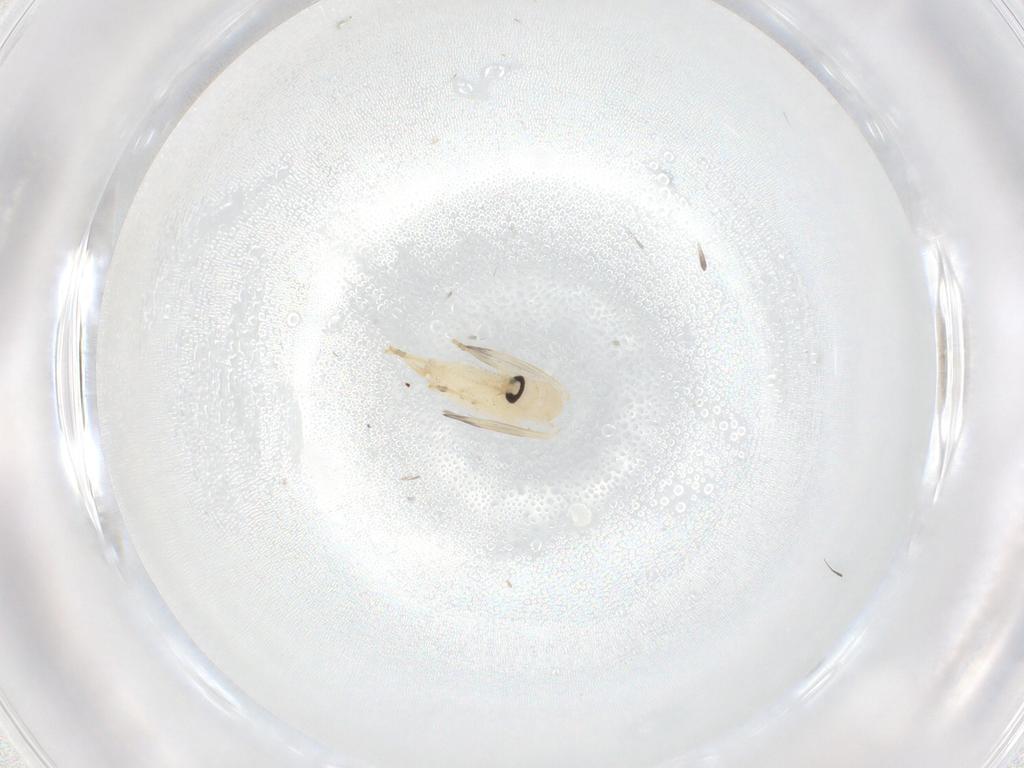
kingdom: Animalia
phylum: Arthropoda
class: Insecta
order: Diptera
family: Psychodidae
